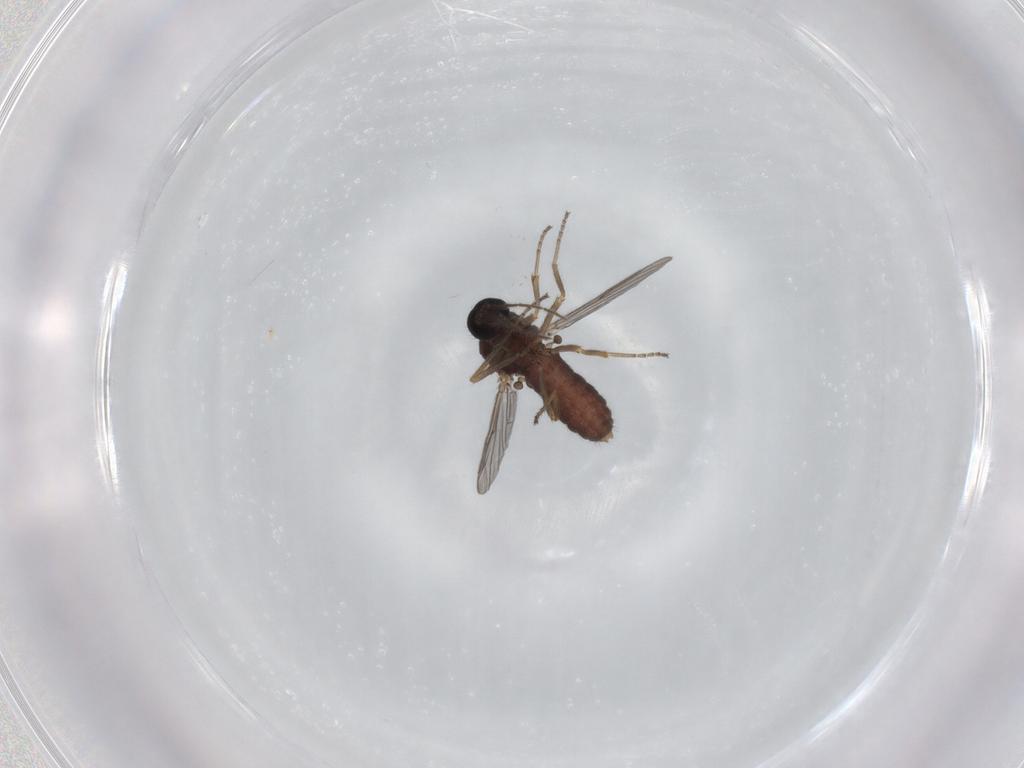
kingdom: Animalia
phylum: Arthropoda
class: Insecta
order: Diptera
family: Ceratopogonidae
